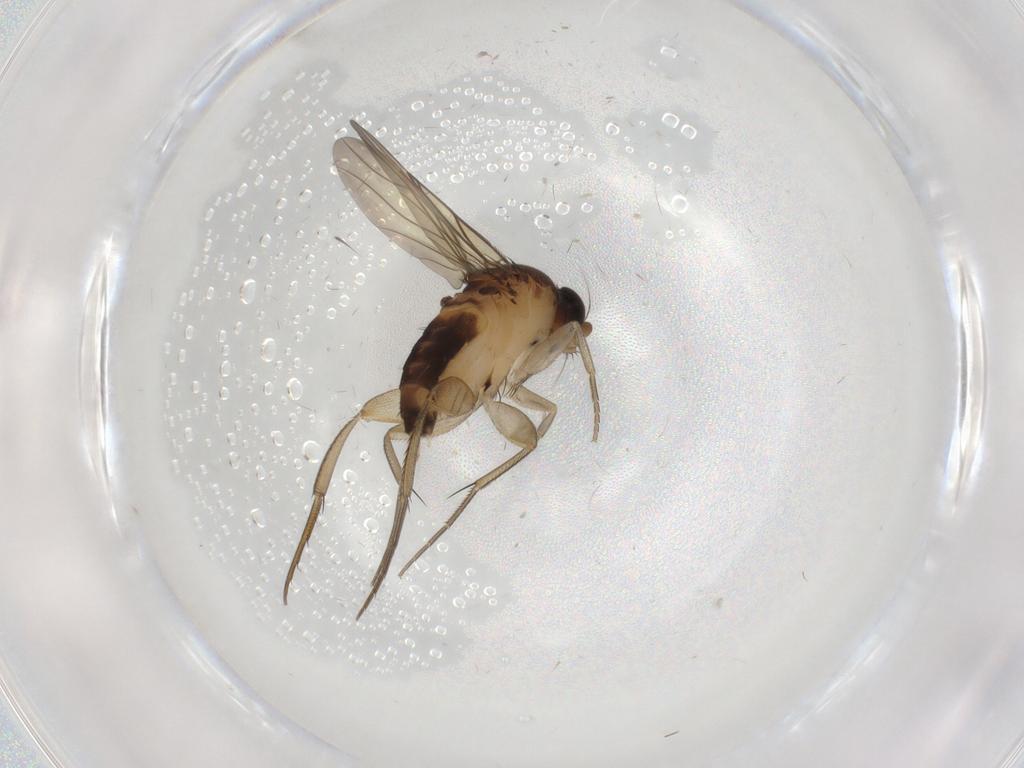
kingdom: Animalia
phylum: Arthropoda
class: Insecta
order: Diptera
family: Phoridae
